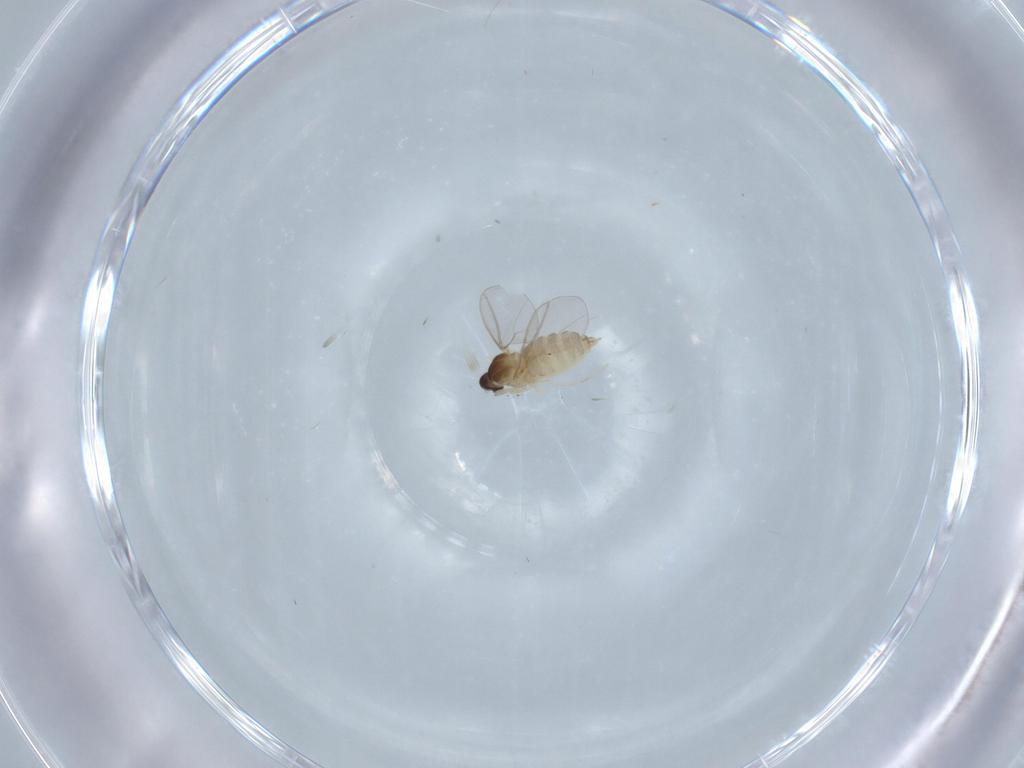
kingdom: Animalia
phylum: Arthropoda
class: Insecta
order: Diptera
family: Cecidomyiidae
